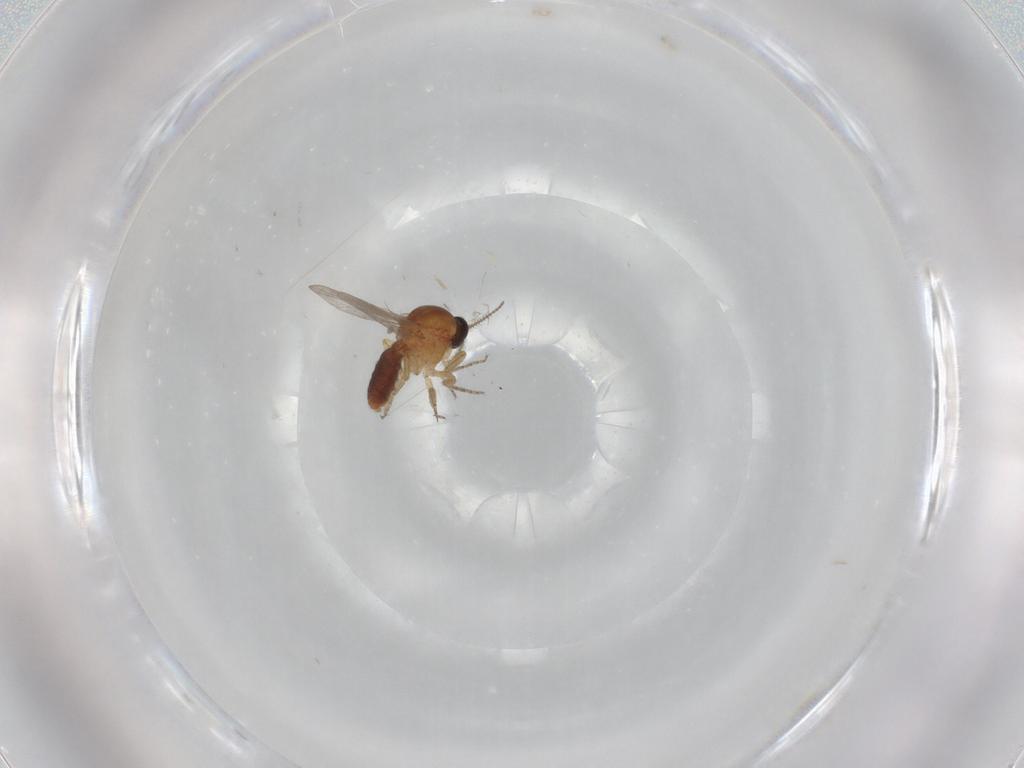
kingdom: Animalia
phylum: Arthropoda
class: Insecta
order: Diptera
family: Ceratopogonidae
